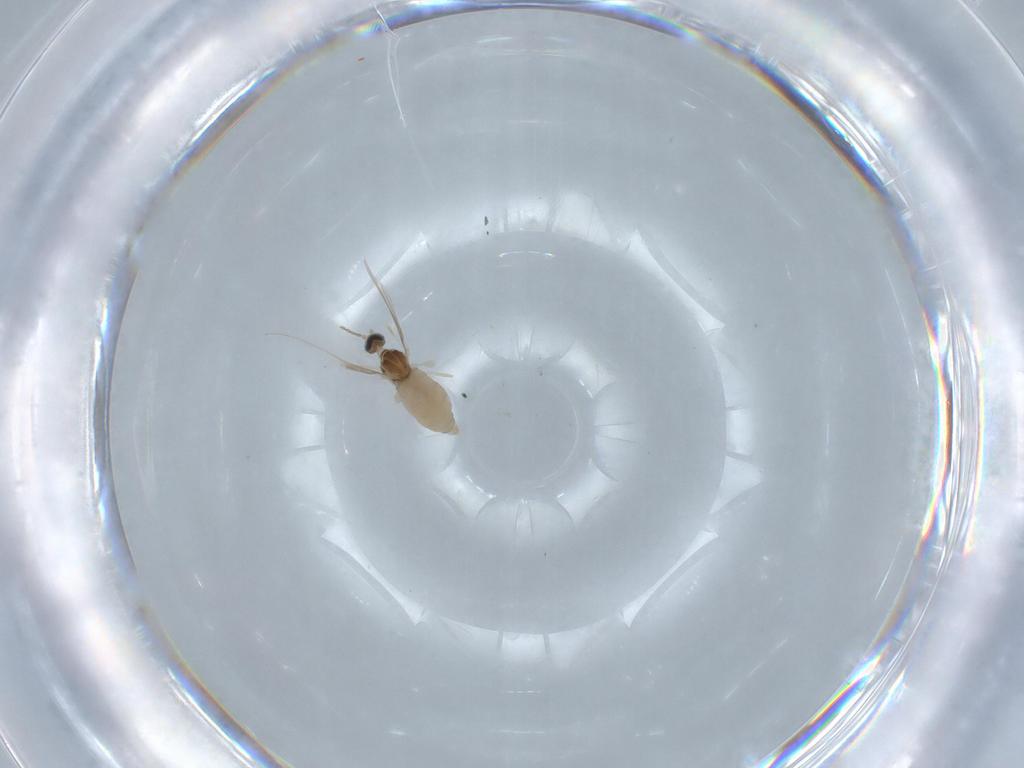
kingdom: Animalia
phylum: Arthropoda
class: Insecta
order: Diptera
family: Cecidomyiidae
